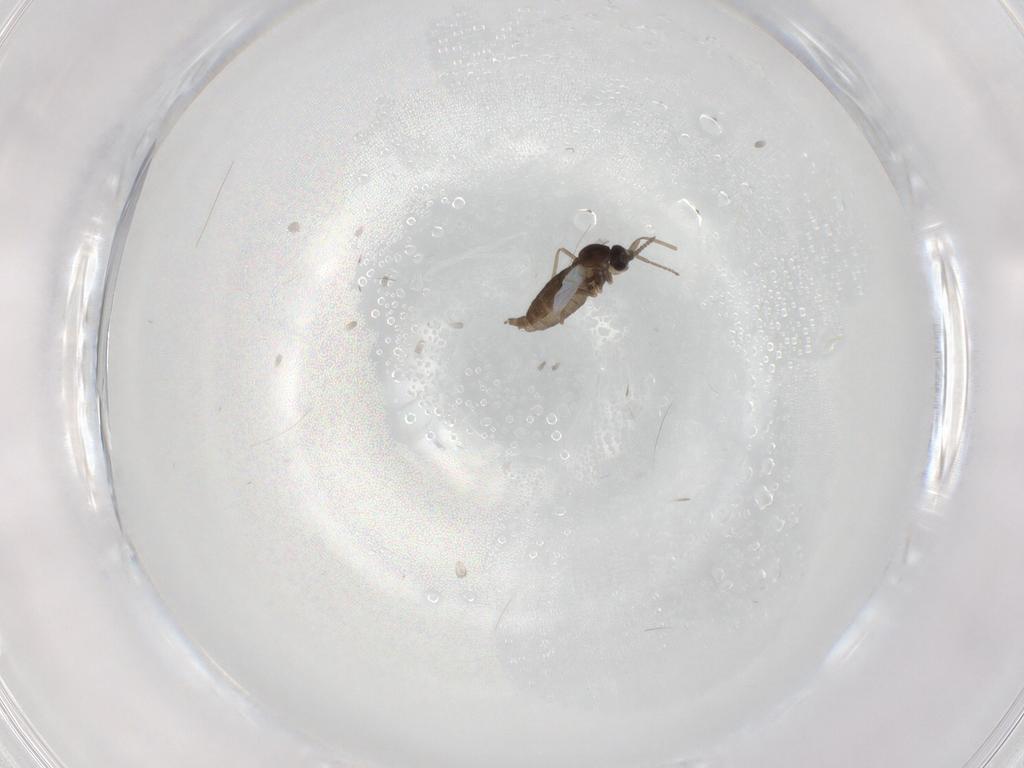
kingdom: Animalia
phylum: Arthropoda
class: Insecta
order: Diptera
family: Cecidomyiidae
